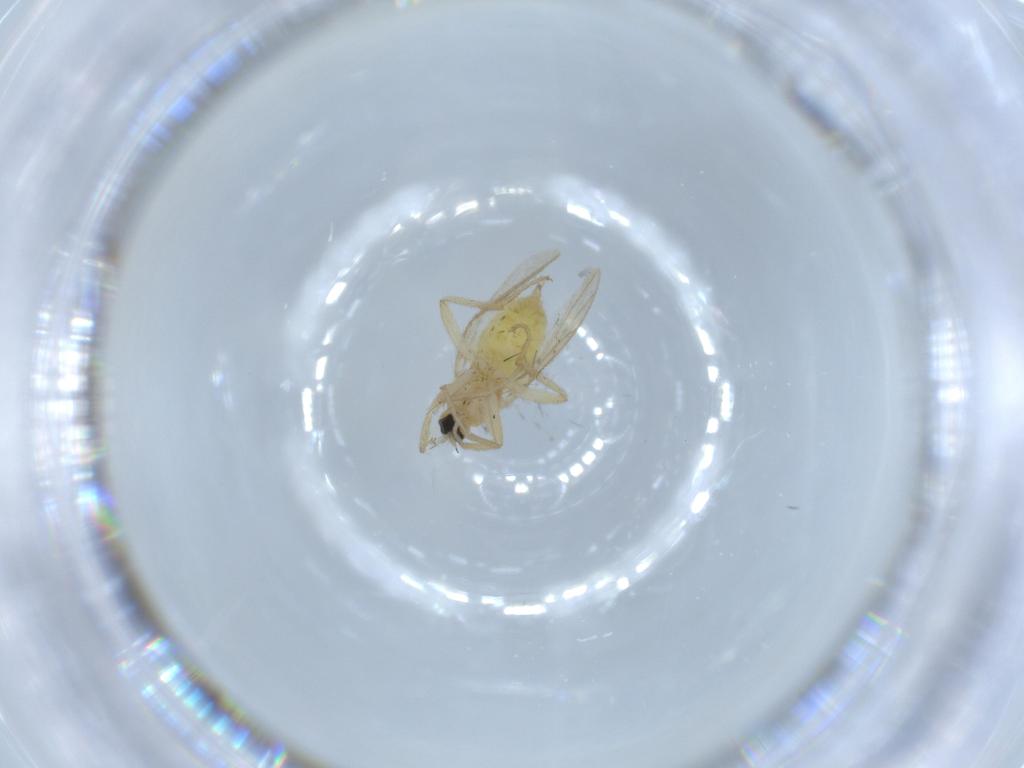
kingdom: Animalia
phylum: Arthropoda
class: Insecta
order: Diptera
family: Hybotidae
